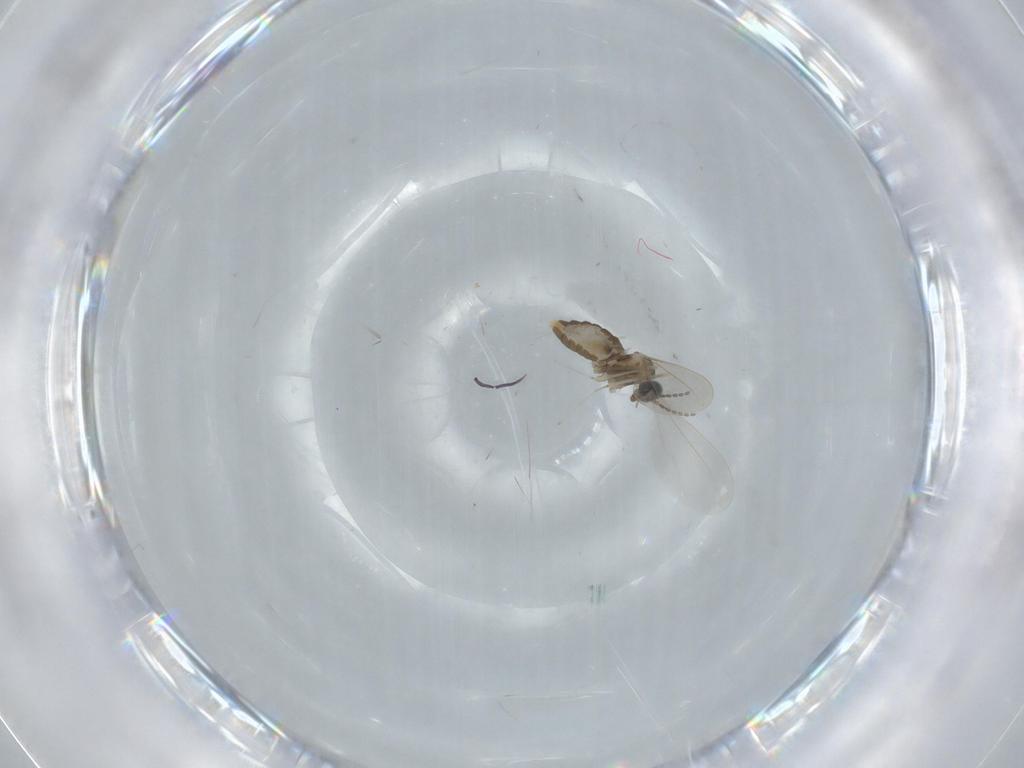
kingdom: Animalia
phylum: Arthropoda
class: Insecta
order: Diptera
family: Cecidomyiidae
